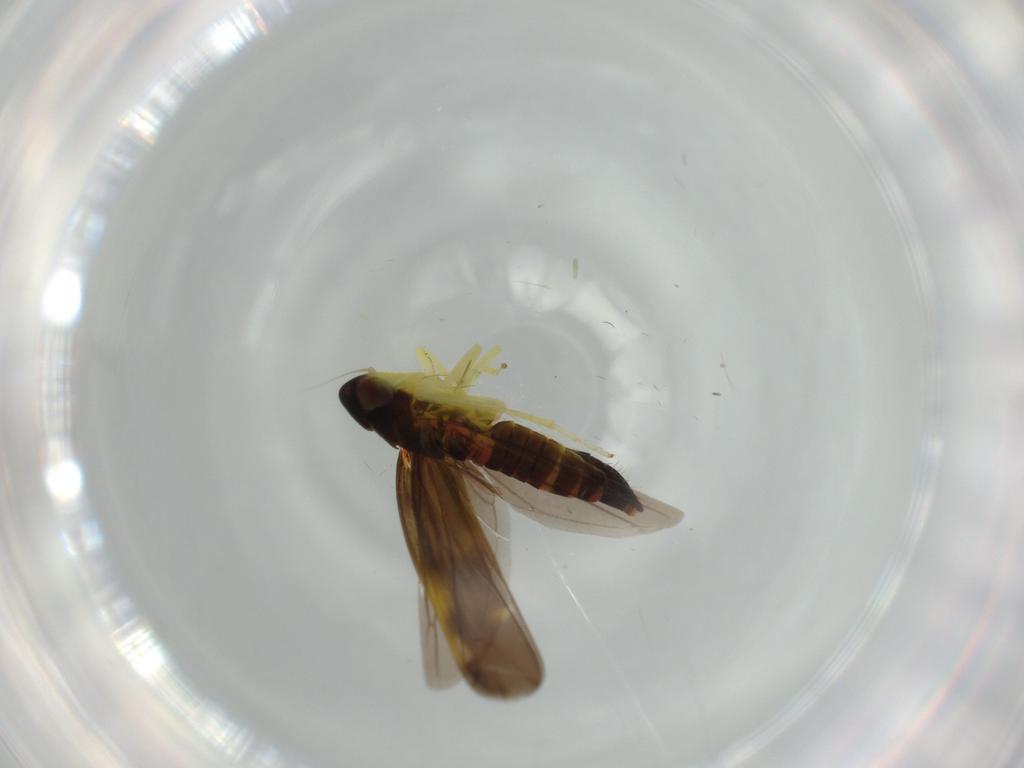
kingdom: Animalia
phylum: Arthropoda
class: Insecta
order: Hemiptera
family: Cicadellidae
